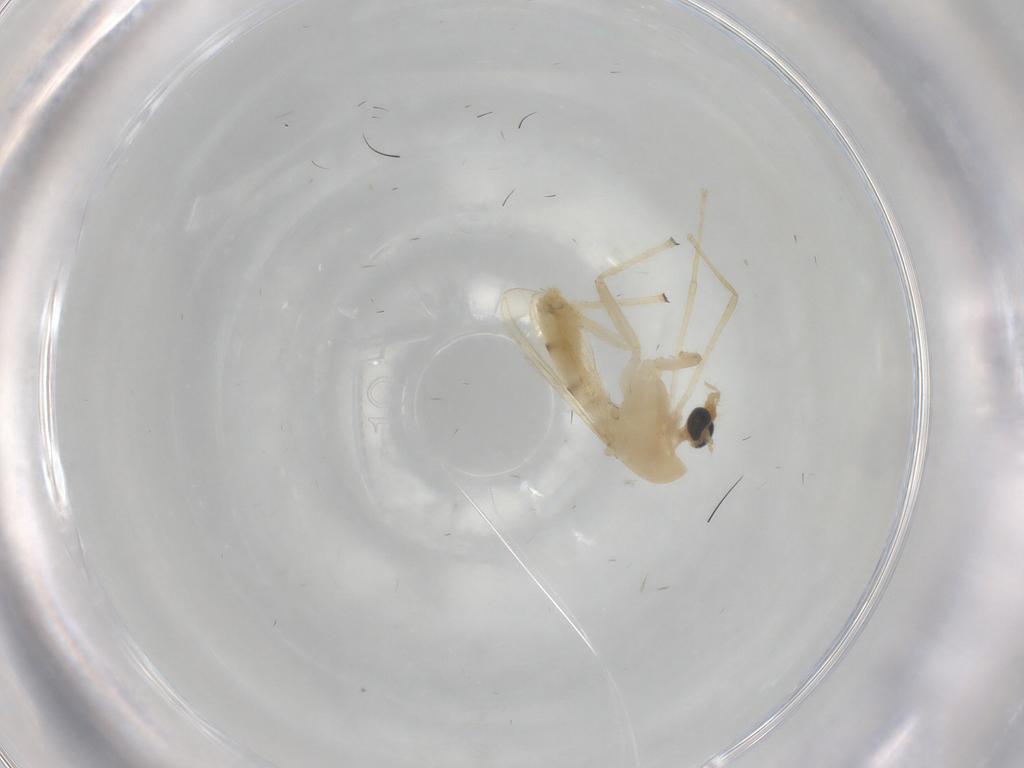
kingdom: Animalia
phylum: Arthropoda
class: Insecta
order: Diptera
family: Chironomidae
